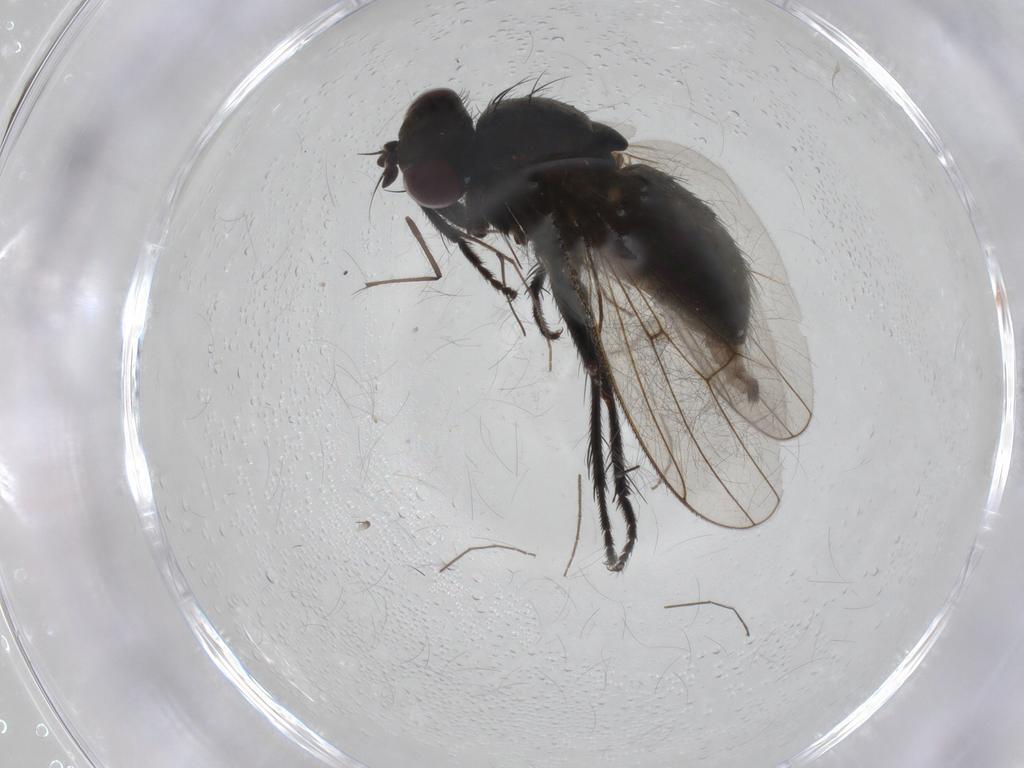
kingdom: Animalia
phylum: Arthropoda
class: Insecta
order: Diptera
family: Muscidae
